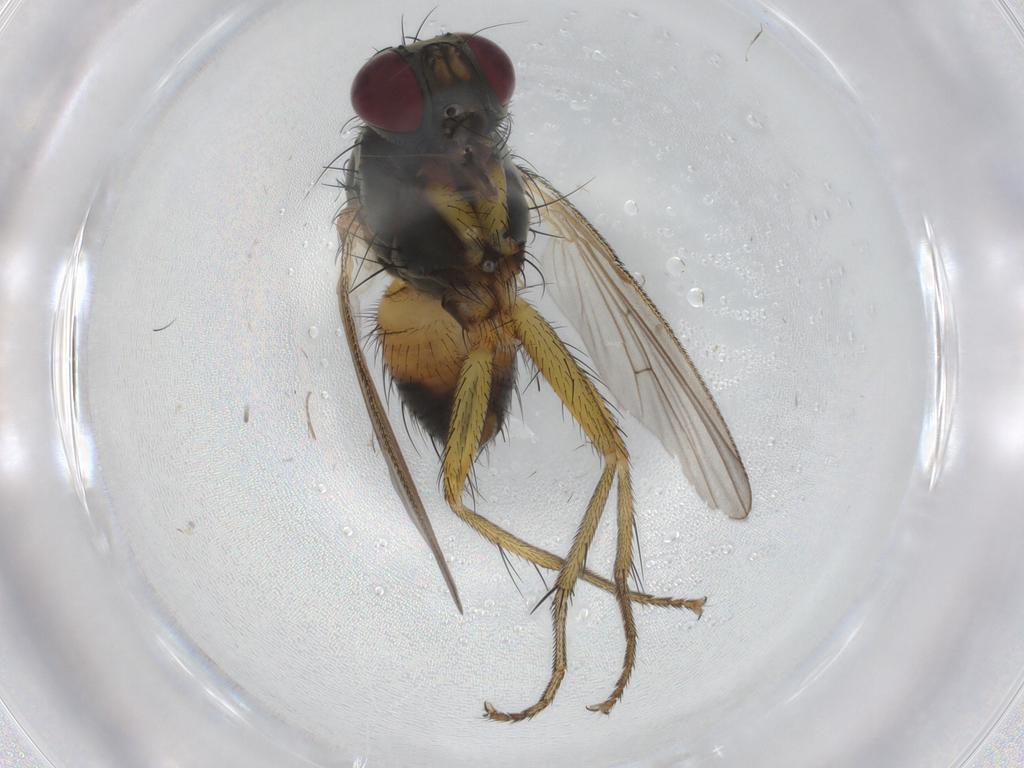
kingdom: Animalia
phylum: Arthropoda
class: Insecta
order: Diptera
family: Muscidae
